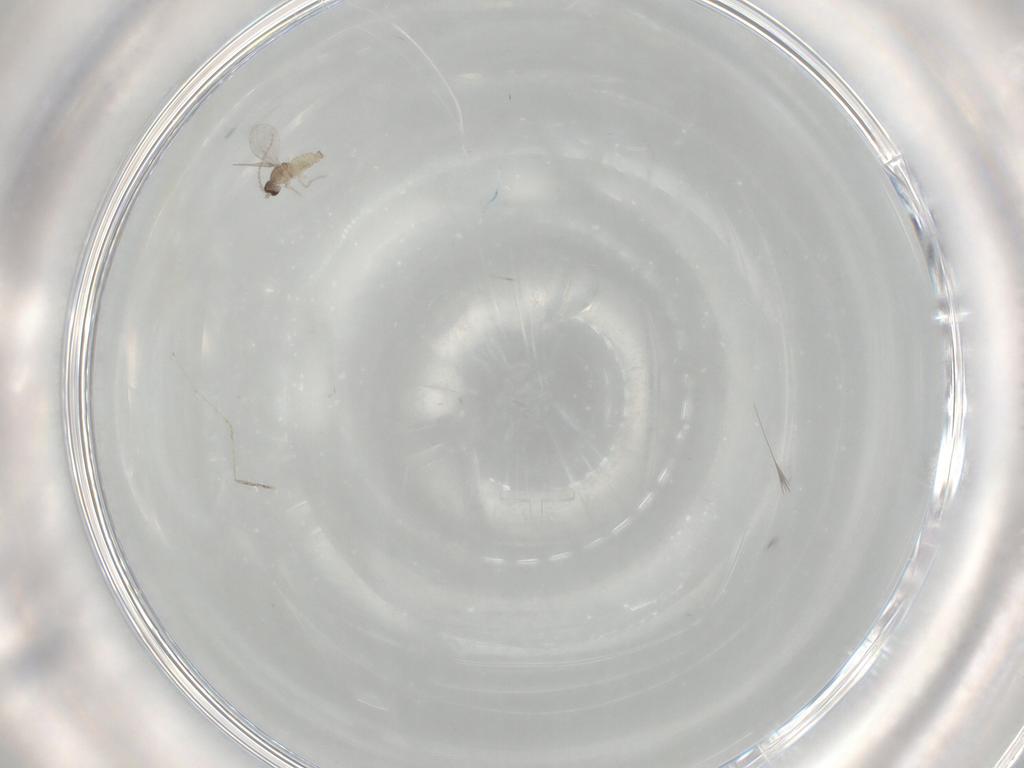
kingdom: Animalia
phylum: Arthropoda
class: Insecta
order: Diptera
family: Cecidomyiidae
